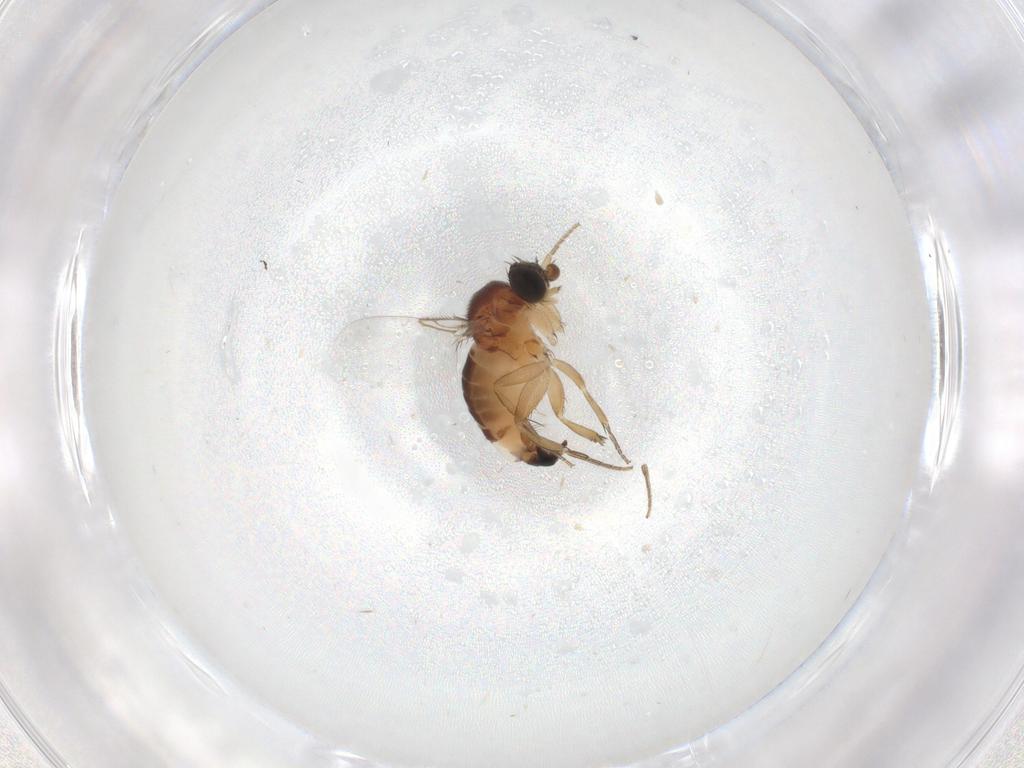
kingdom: Animalia
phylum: Arthropoda
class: Insecta
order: Diptera
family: Phoridae
